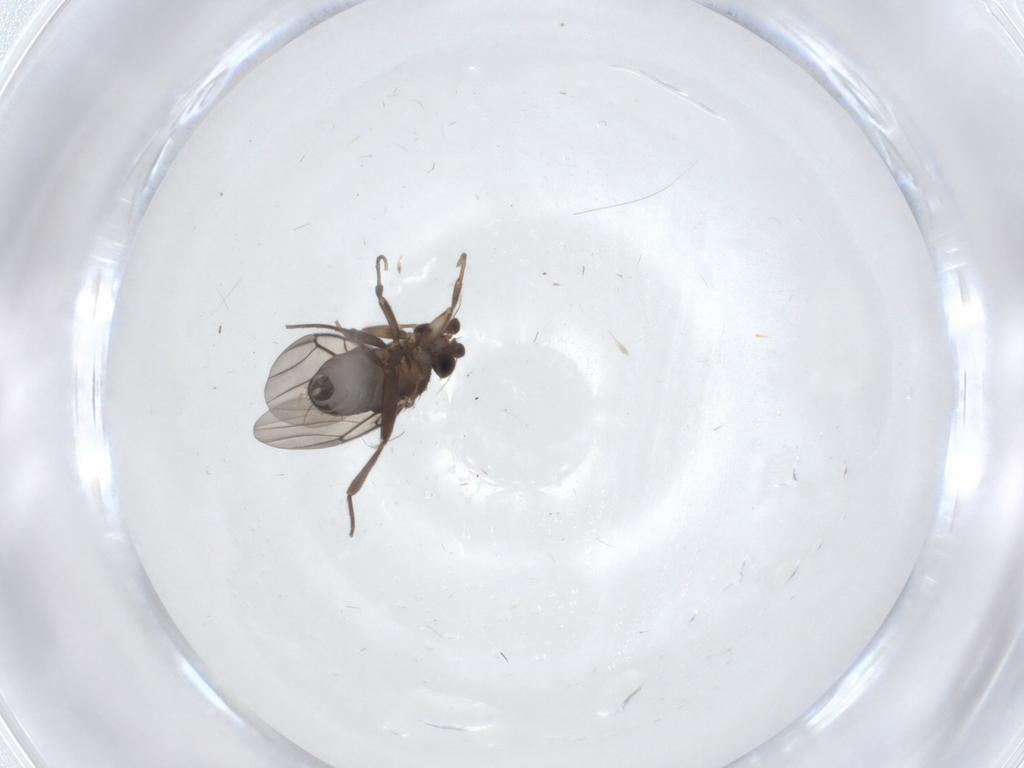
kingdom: Animalia
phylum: Arthropoda
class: Insecta
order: Diptera
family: Phoridae
